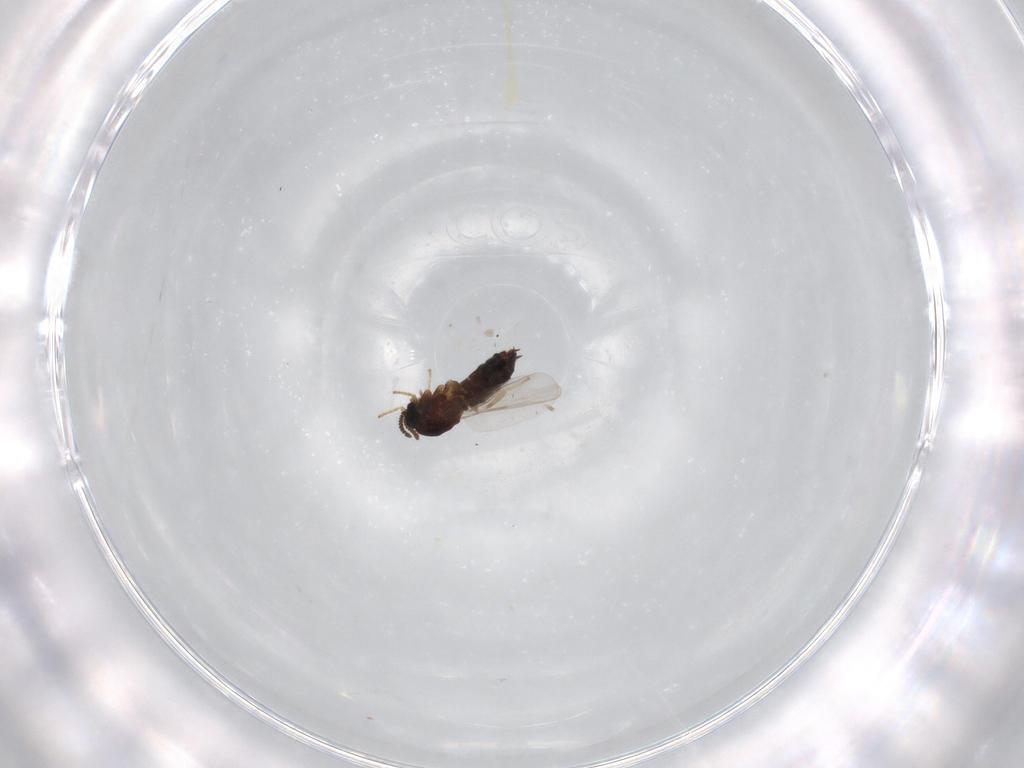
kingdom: Animalia
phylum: Arthropoda
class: Insecta
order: Diptera
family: Scatopsidae
